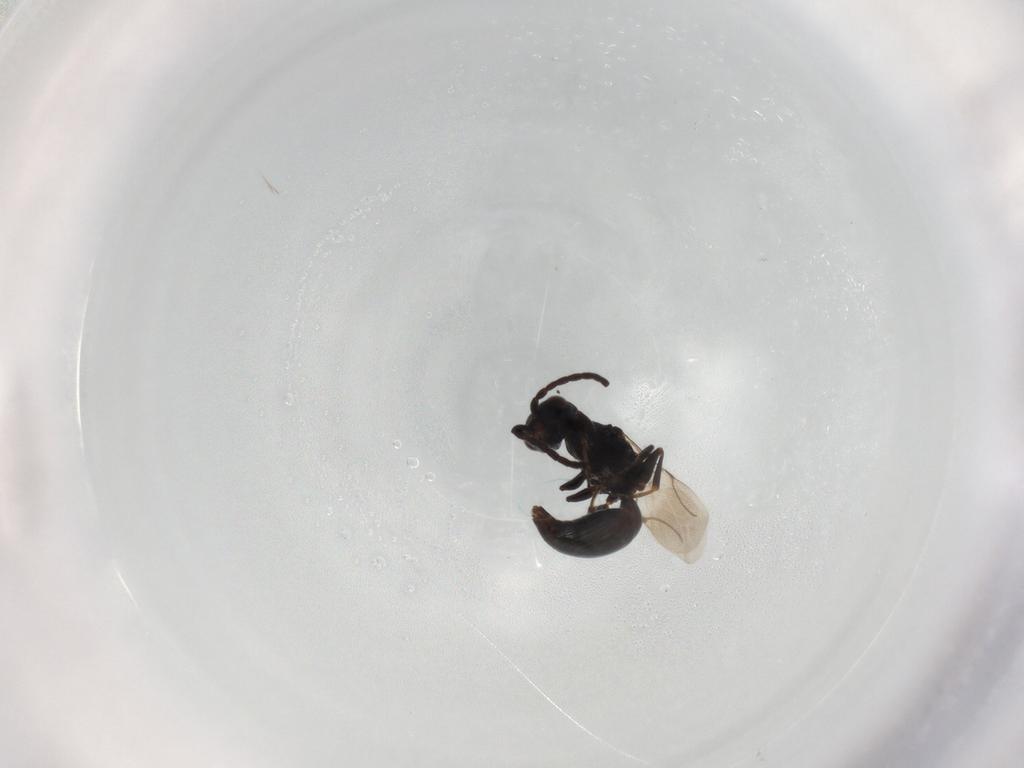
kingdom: Animalia
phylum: Arthropoda
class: Insecta
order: Hymenoptera
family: Bethylidae
